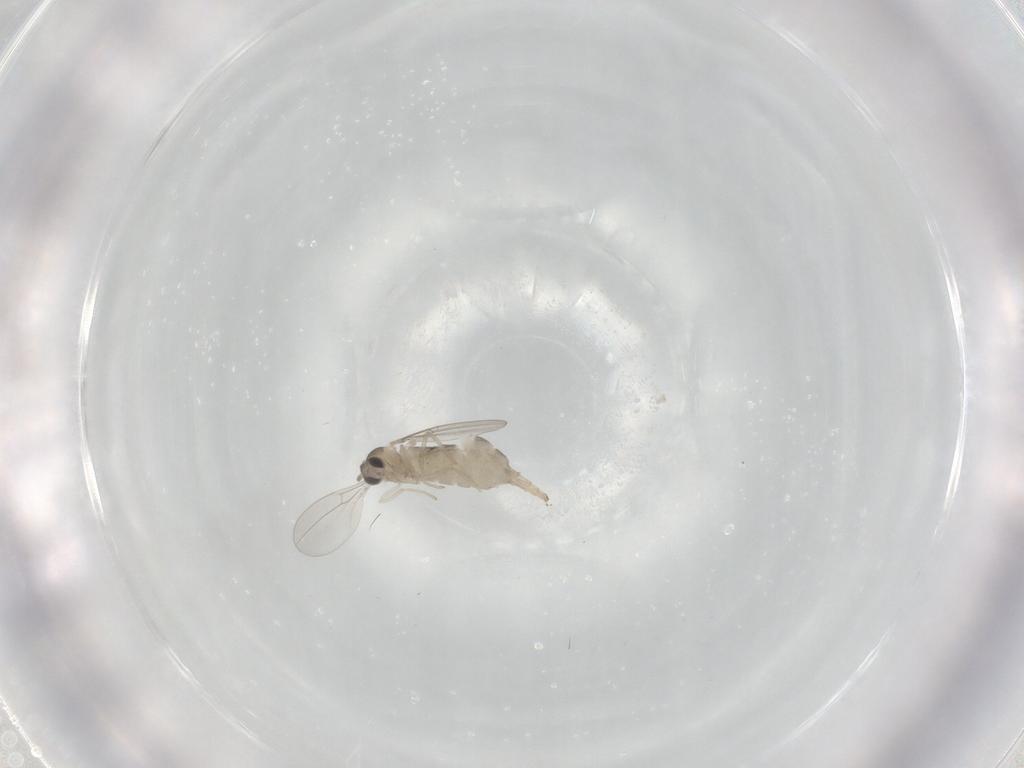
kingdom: Animalia
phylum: Arthropoda
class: Insecta
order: Diptera
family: Cecidomyiidae
